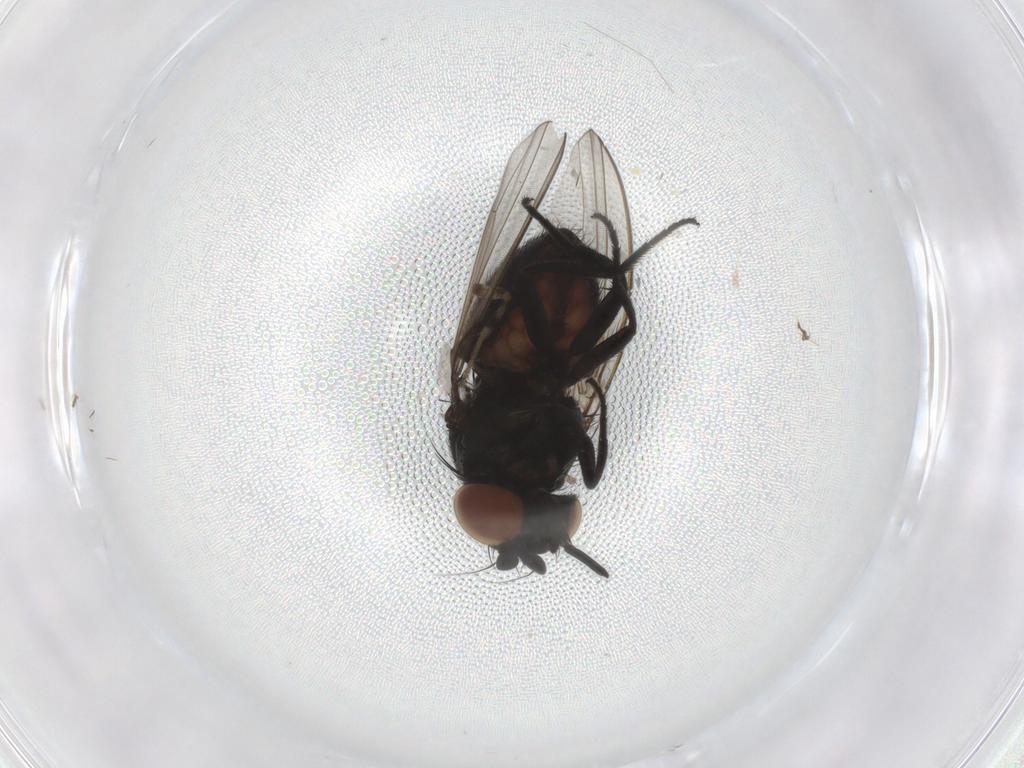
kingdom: Animalia
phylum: Arthropoda
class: Insecta
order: Diptera
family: Milichiidae
